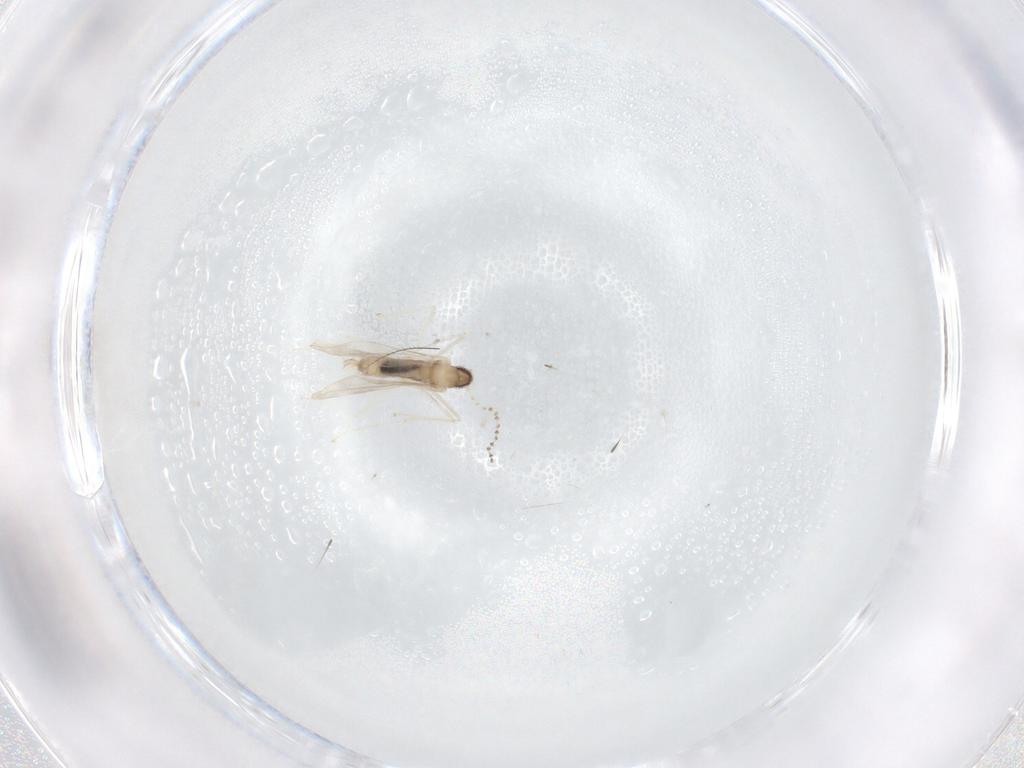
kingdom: Animalia
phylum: Arthropoda
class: Insecta
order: Diptera
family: Cecidomyiidae
